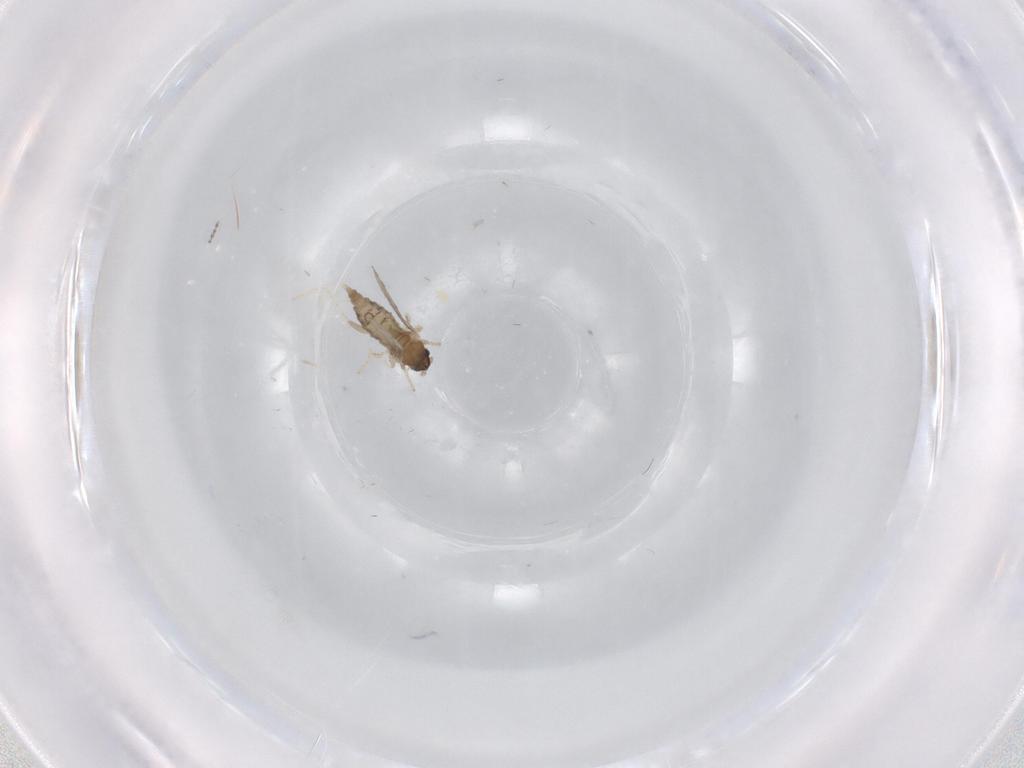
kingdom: Animalia
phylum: Arthropoda
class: Insecta
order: Diptera
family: Cecidomyiidae
